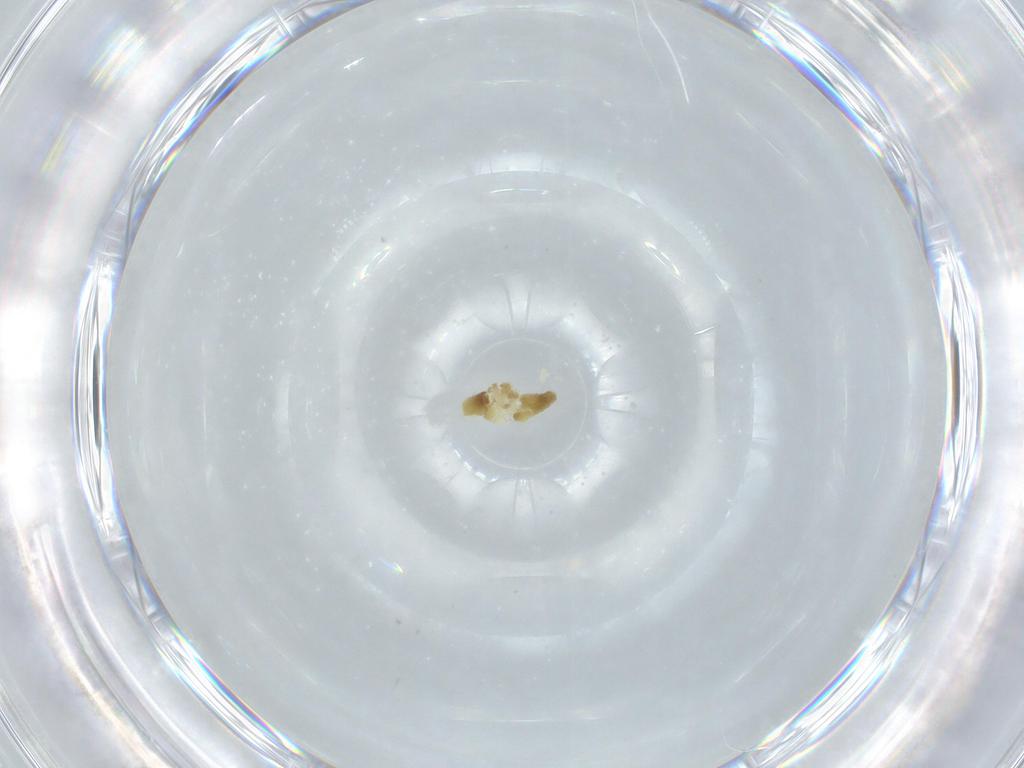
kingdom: Animalia
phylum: Arthropoda
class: Insecta
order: Diptera
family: Chironomidae
